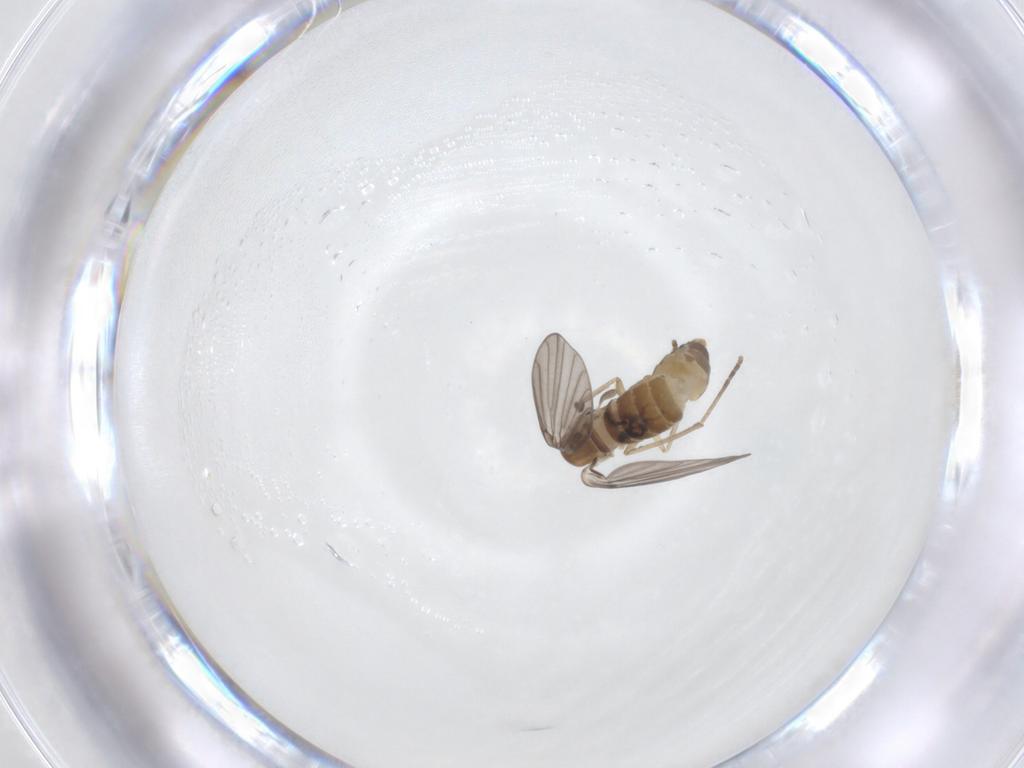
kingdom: Animalia
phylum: Arthropoda
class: Insecta
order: Diptera
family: Psychodidae
